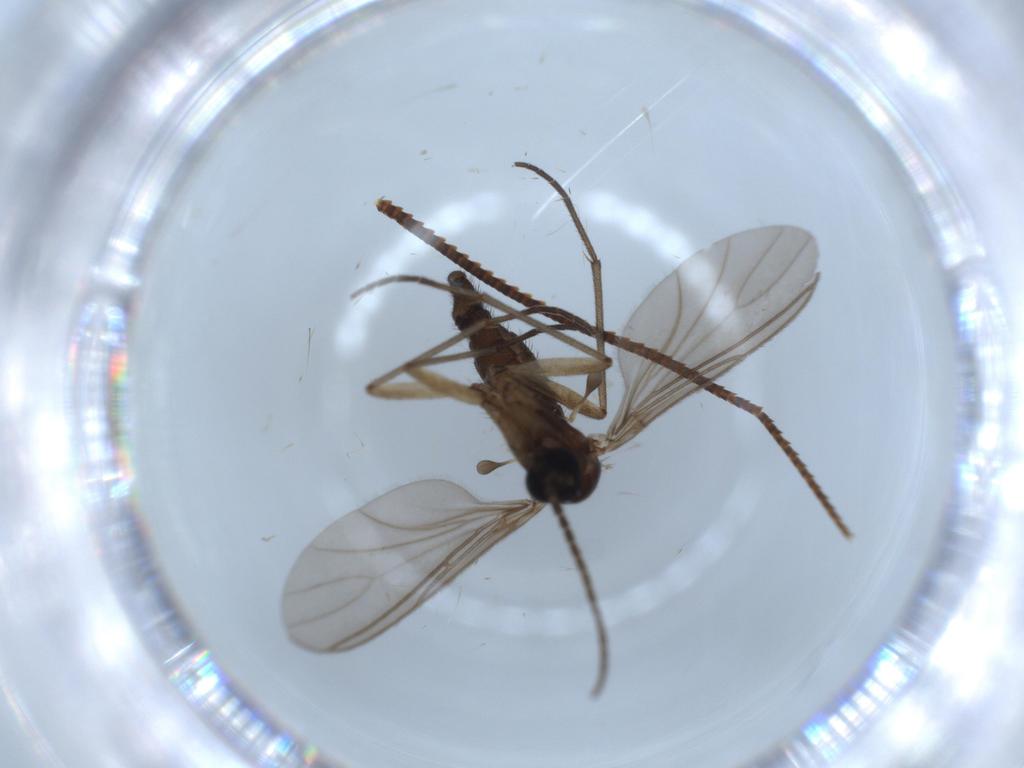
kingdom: Animalia
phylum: Arthropoda
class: Insecta
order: Diptera
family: Sciaridae
